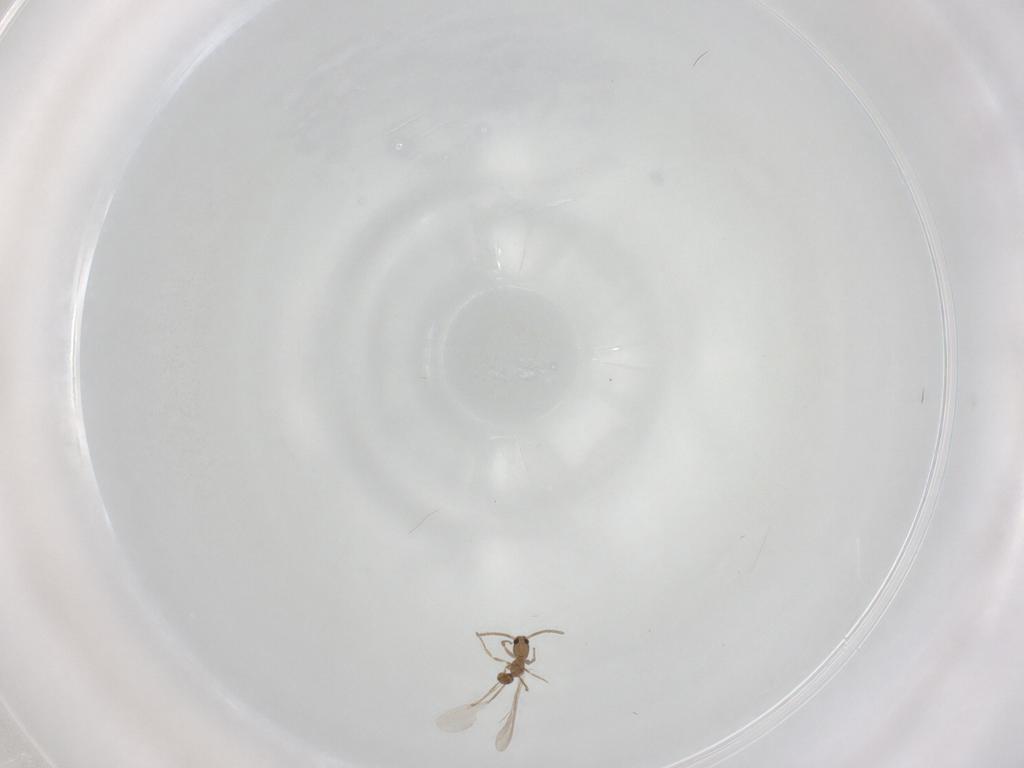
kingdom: Animalia
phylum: Arthropoda
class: Insecta
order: Hymenoptera
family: Formicidae
